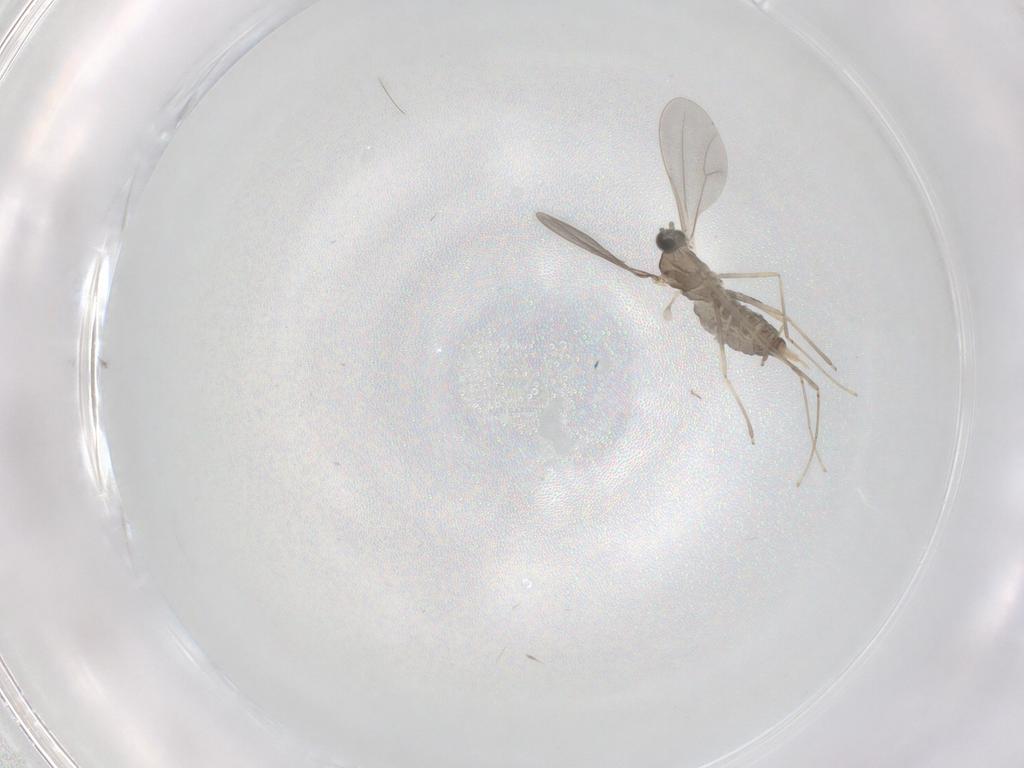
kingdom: Animalia
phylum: Arthropoda
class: Insecta
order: Diptera
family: Cecidomyiidae
